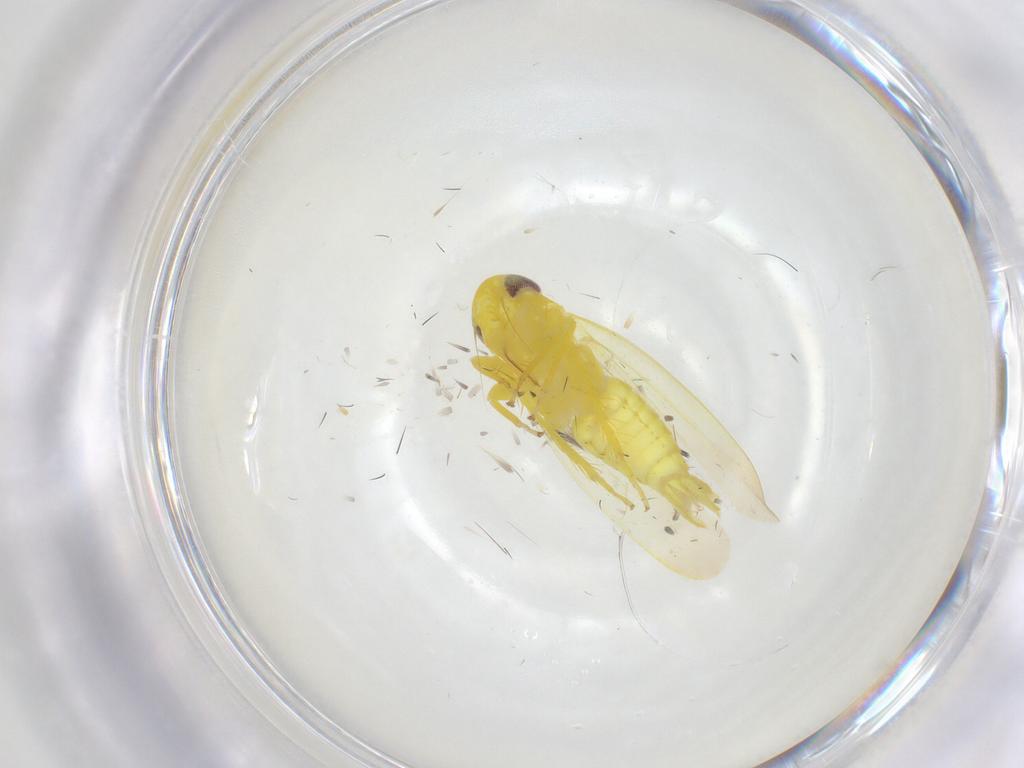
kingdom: Animalia
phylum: Arthropoda
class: Insecta
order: Hemiptera
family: Cicadellidae
